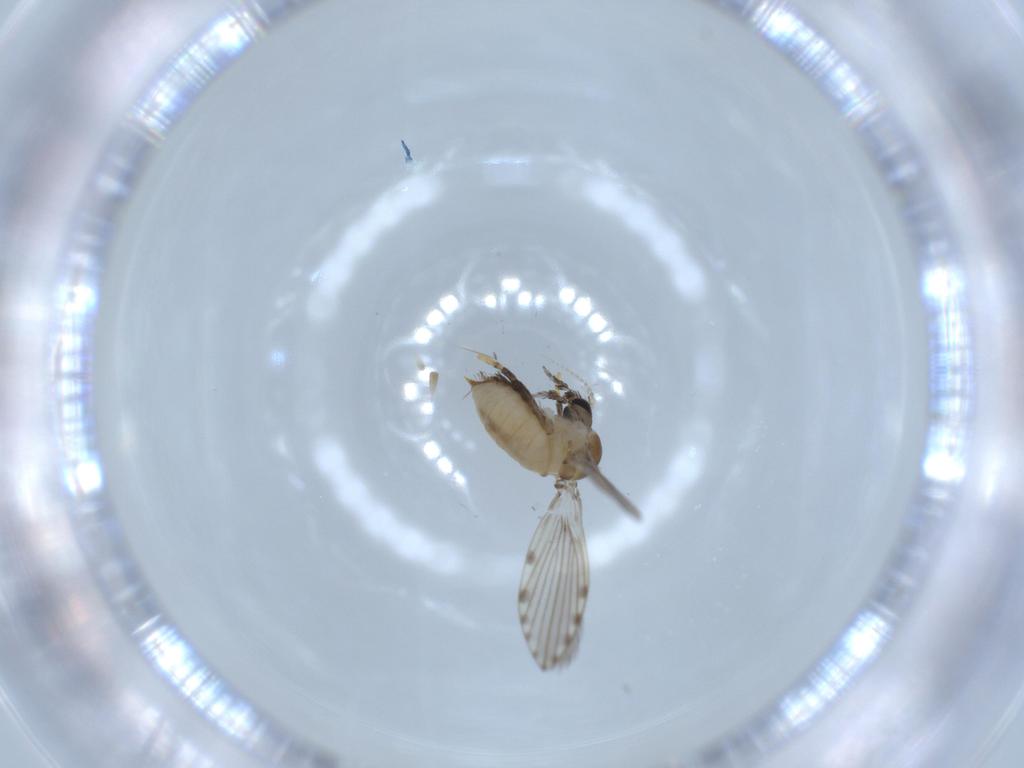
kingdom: Animalia
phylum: Arthropoda
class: Insecta
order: Diptera
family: Psychodidae
